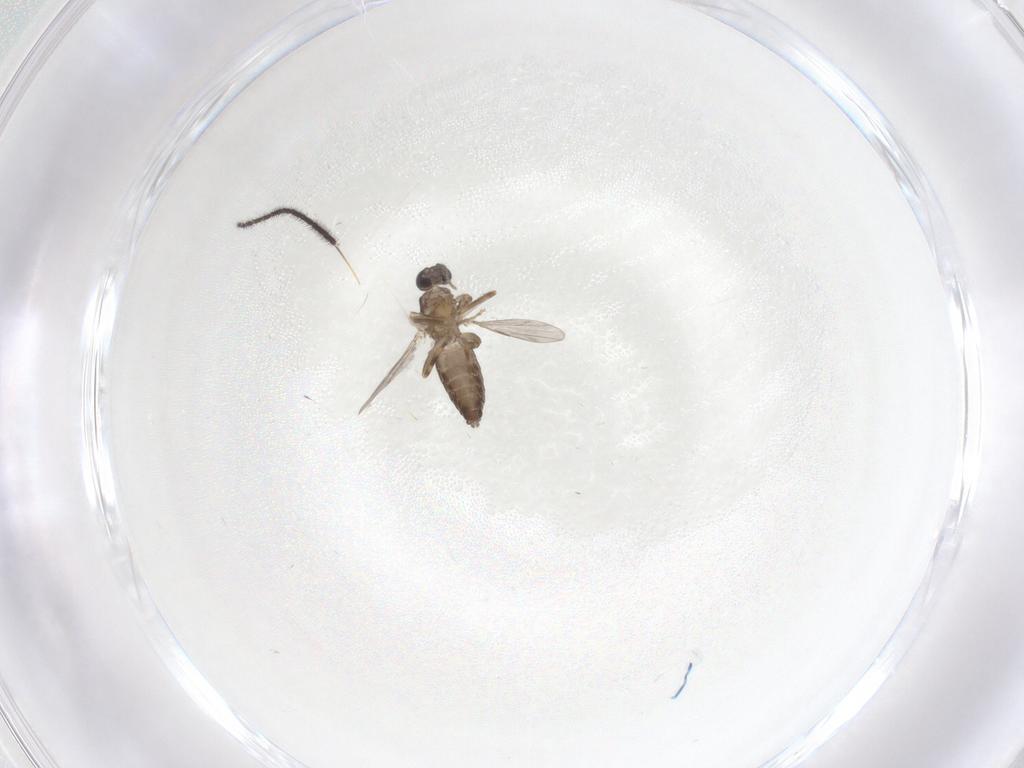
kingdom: Animalia
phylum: Arthropoda
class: Insecta
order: Diptera
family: Ceratopogonidae
